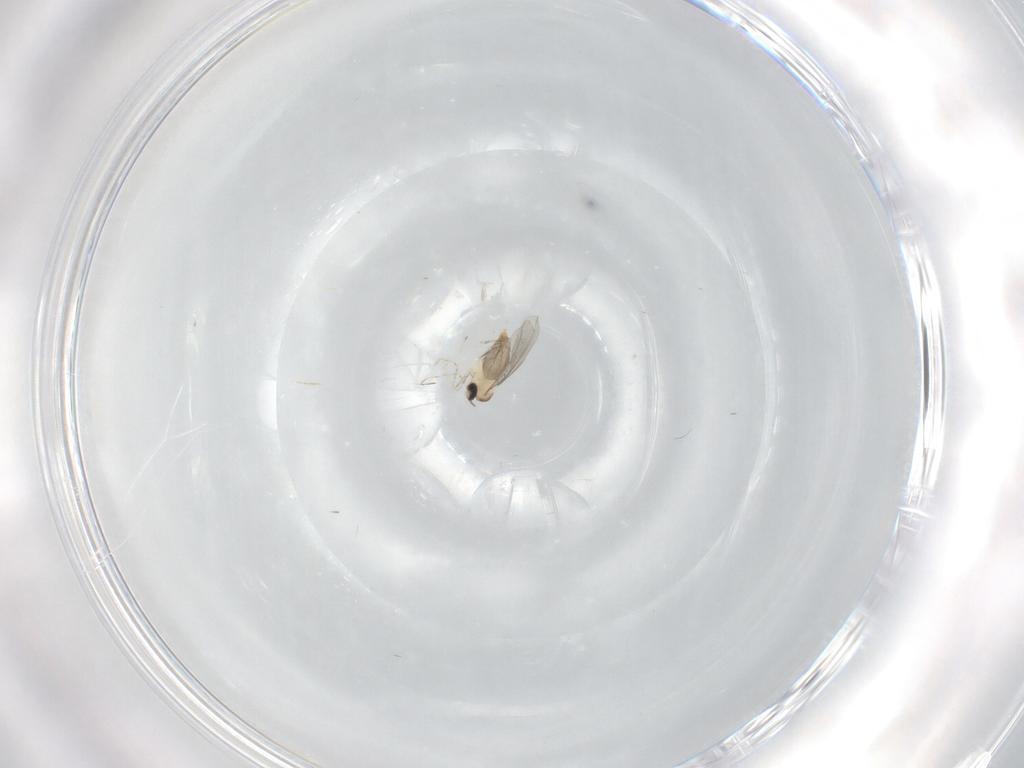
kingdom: Animalia
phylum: Arthropoda
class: Insecta
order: Diptera
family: Cecidomyiidae
